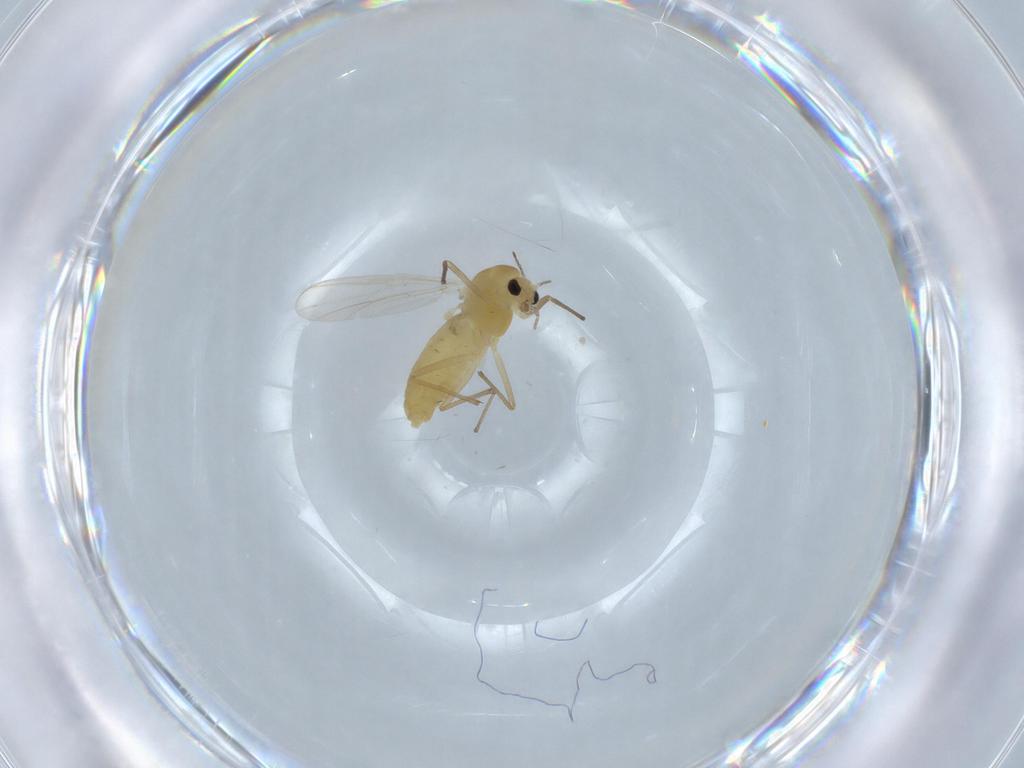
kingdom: Animalia
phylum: Arthropoda
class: Insecta
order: Diptera
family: Chironomidae
